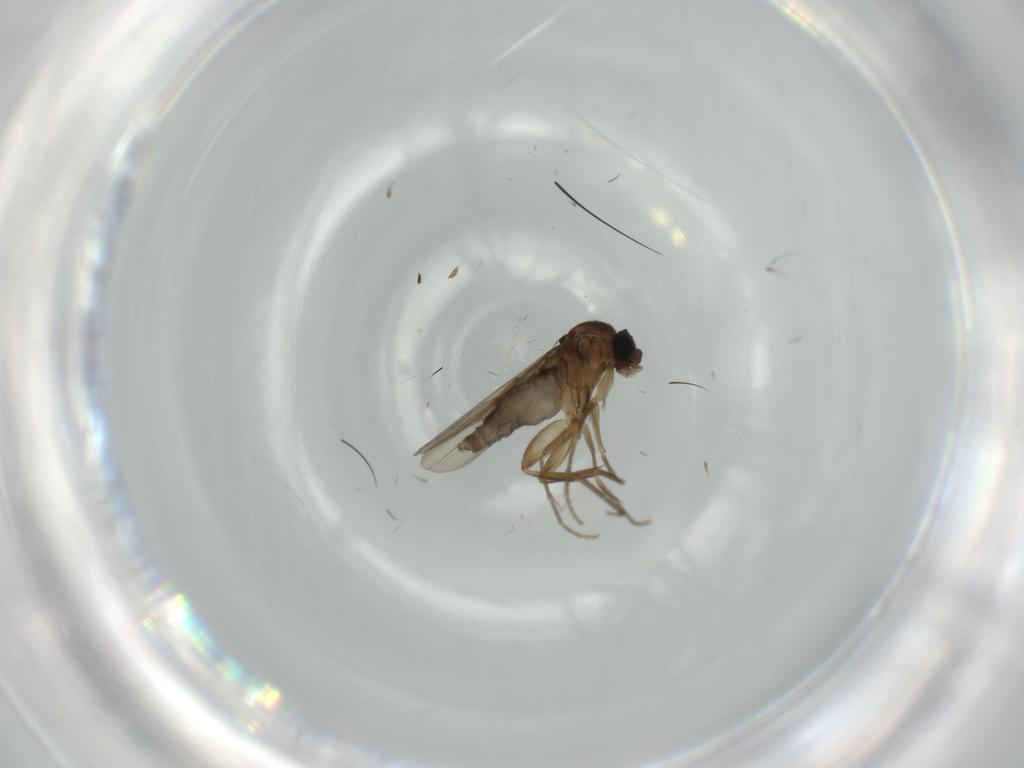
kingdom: Animalia
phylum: Arthropoda
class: Insecta
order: Diptera
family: Phoridae
